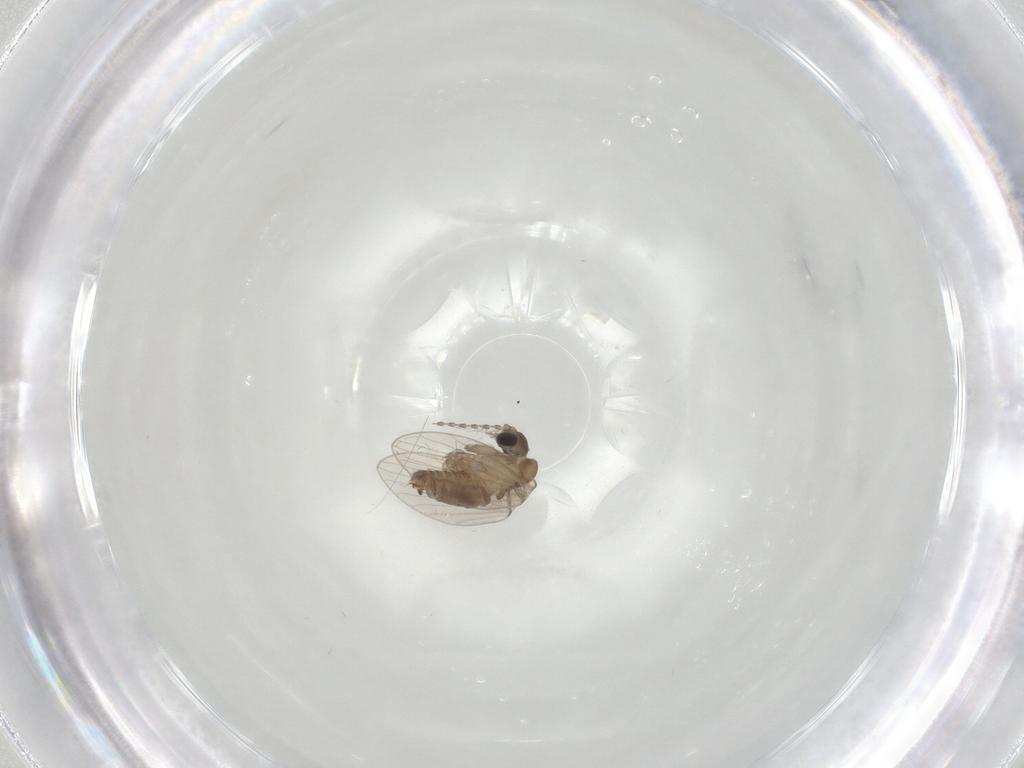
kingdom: Animalia
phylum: Arthropoda
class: Insecta
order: Diptera
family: Psychodidae
